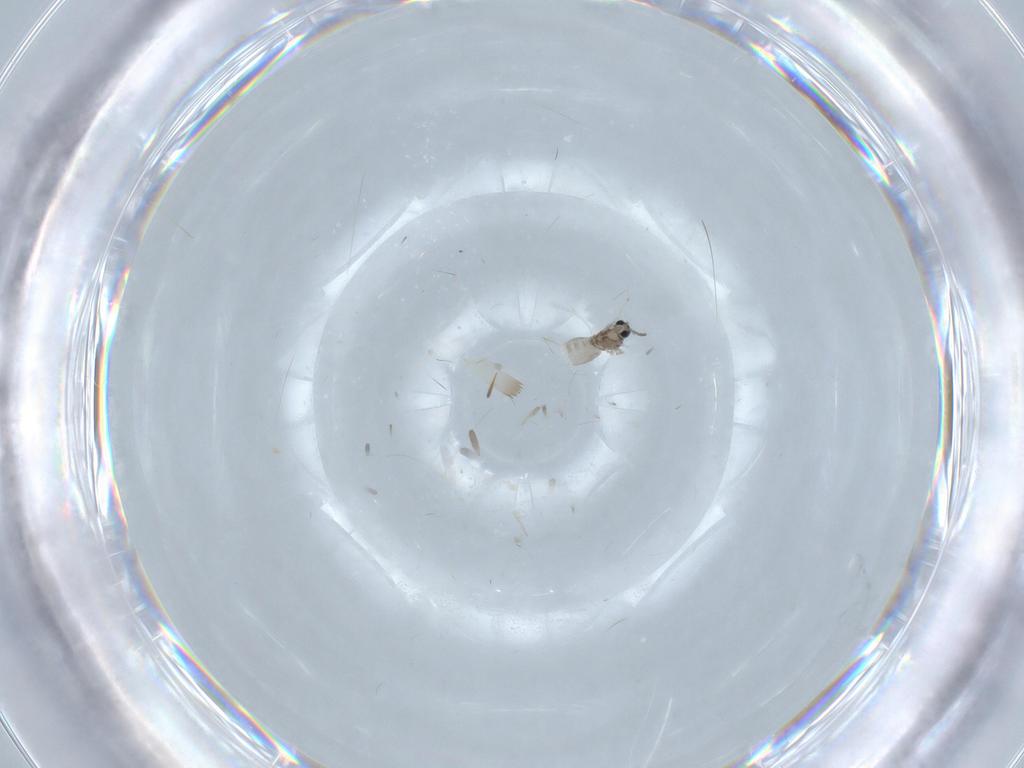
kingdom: Animalia
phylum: Arthropoda
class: Insecta
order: Diptera
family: Cecidomyiidae
